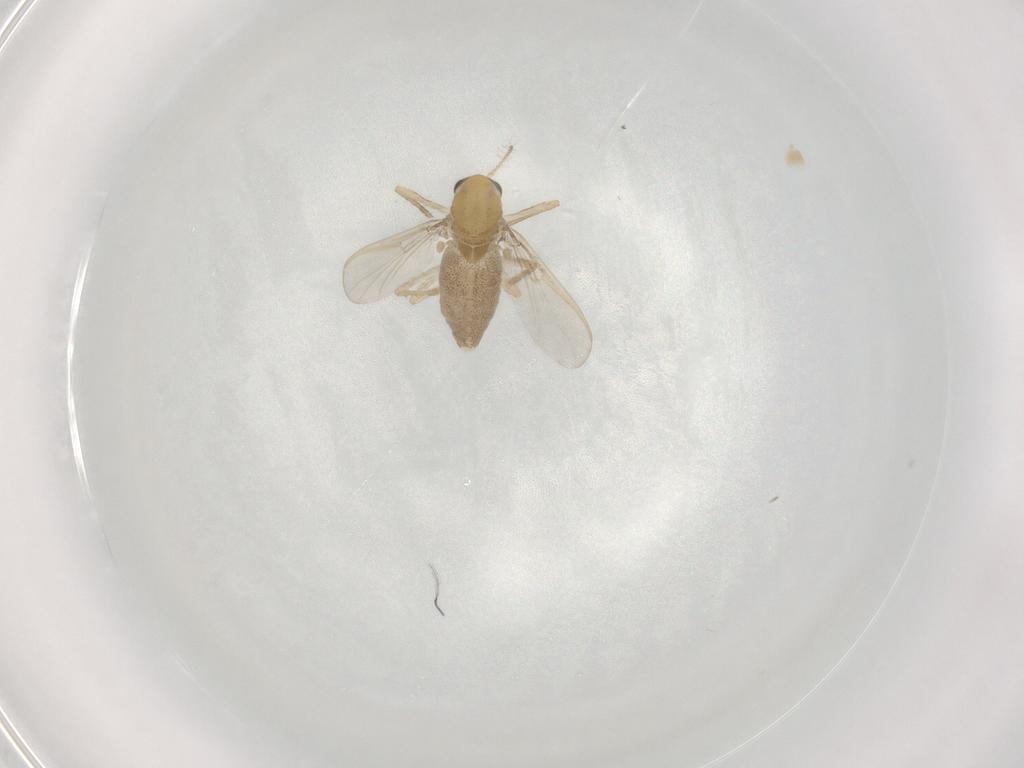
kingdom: Animalia
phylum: Arthropoda
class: Insecta
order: Diptera
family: Chironomidae
